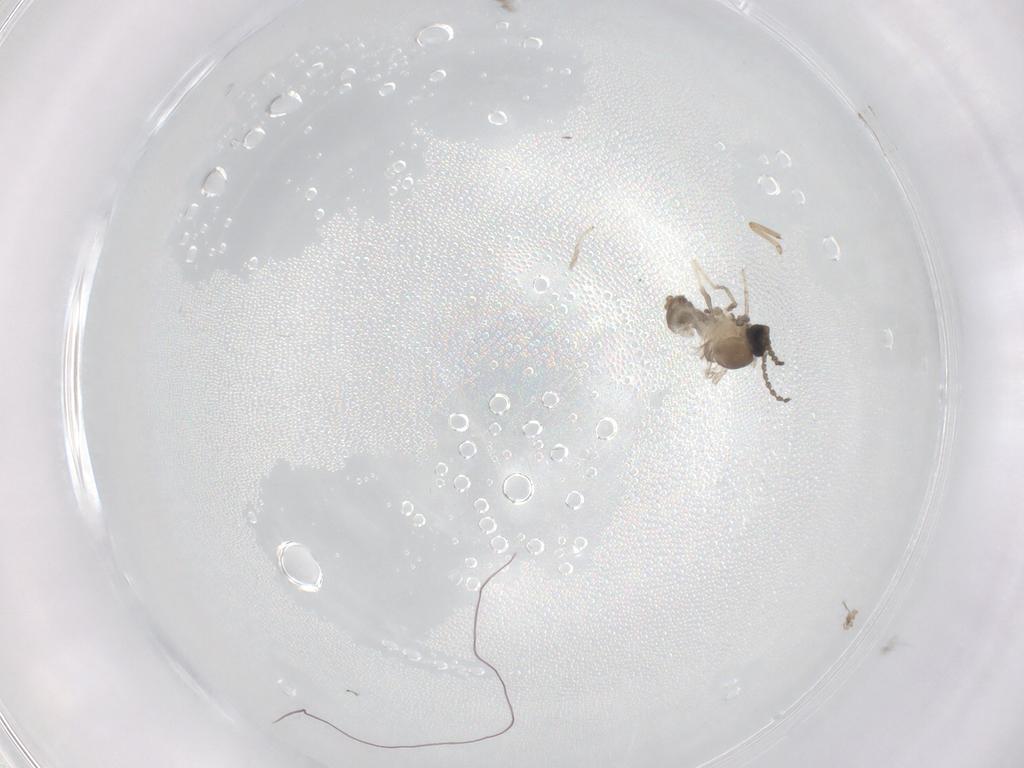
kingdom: Animalia
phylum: Arthropoda
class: Insecta
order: Diptera
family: Cecidomyiidae
